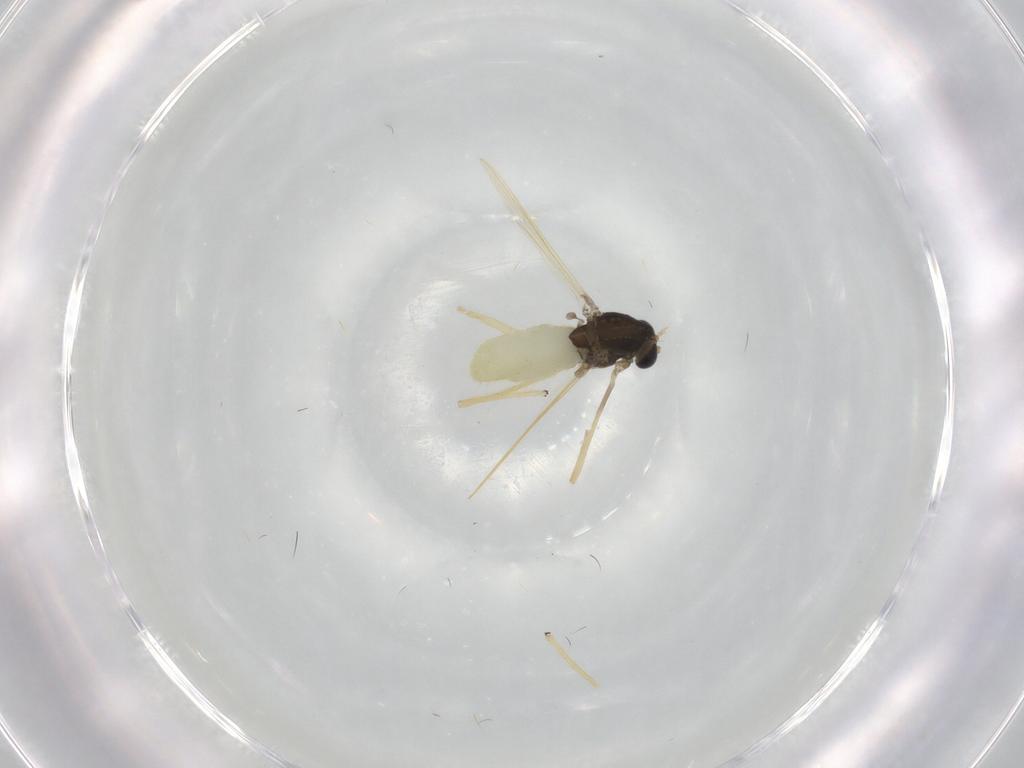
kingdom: Animalia
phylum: Arthropoda
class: Insecta
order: Diptera
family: Chironomidae
